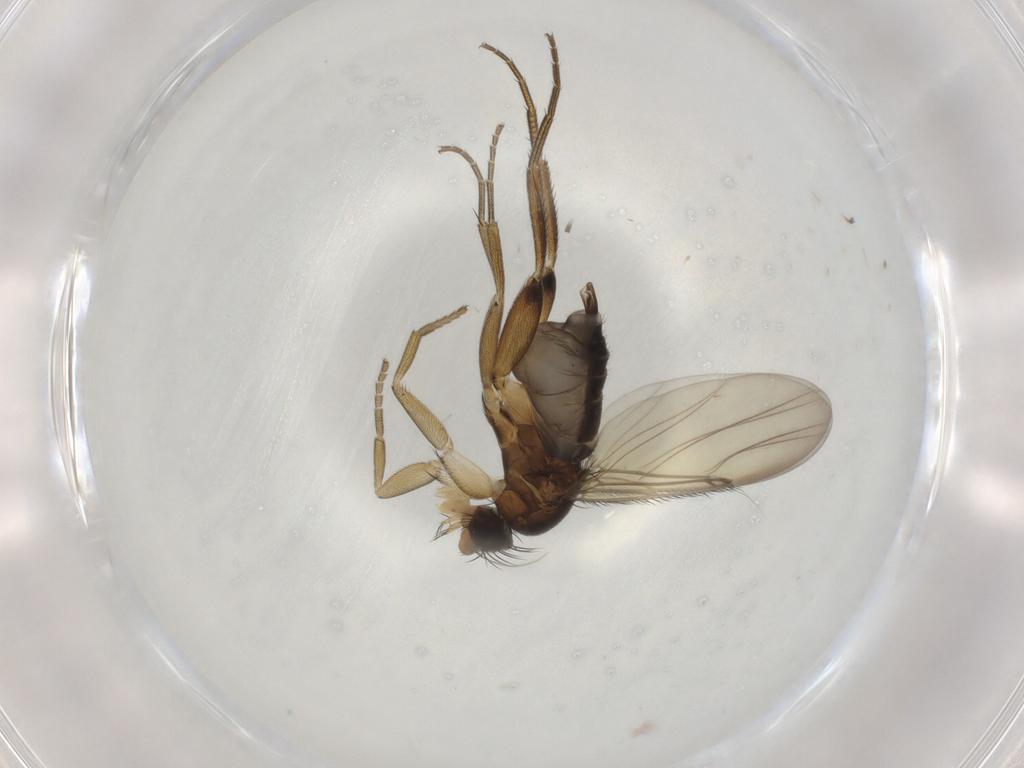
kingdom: Animalia
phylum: Arthropoda
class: Insecta
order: Diptera
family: Phoridae
